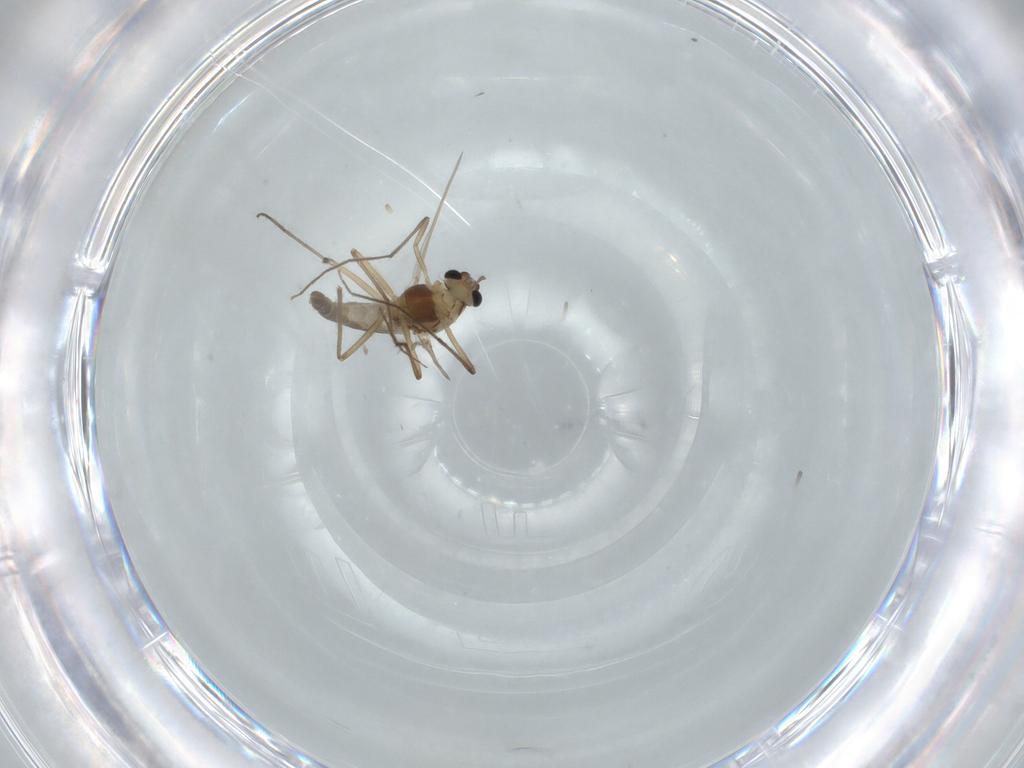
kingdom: Animalia
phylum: Arthropoda
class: Insecta
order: Diptera
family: Chironomidae
